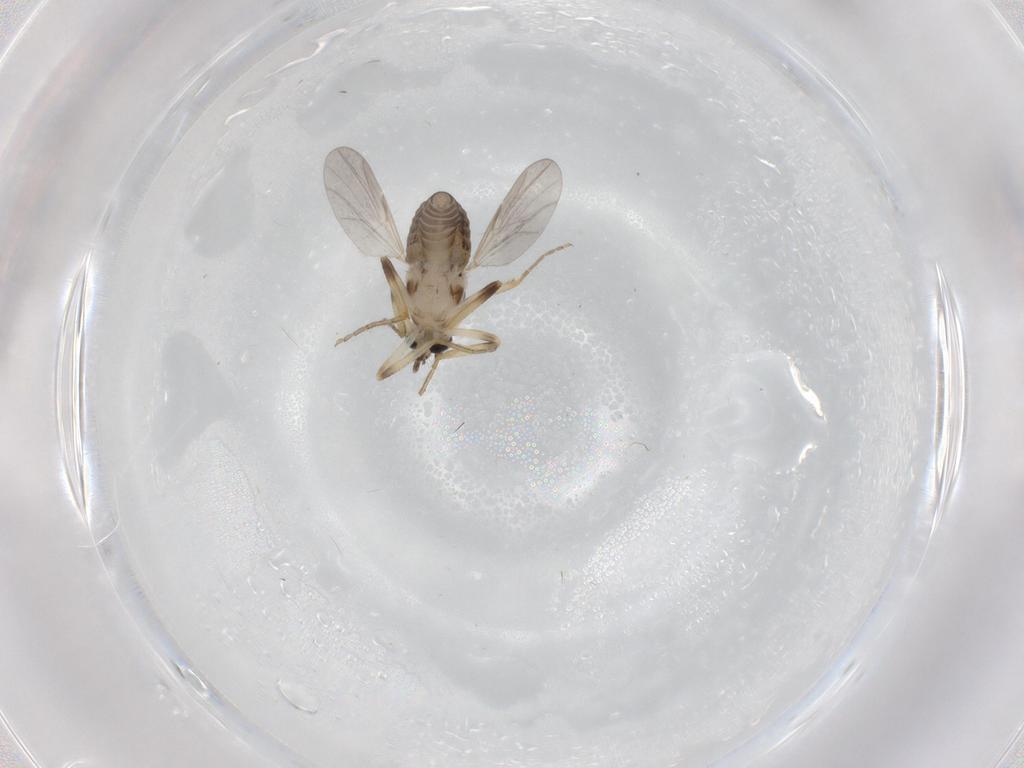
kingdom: Animalia
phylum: Arthropoda
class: Insecta
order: Diptera
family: Ceratopogonidae
